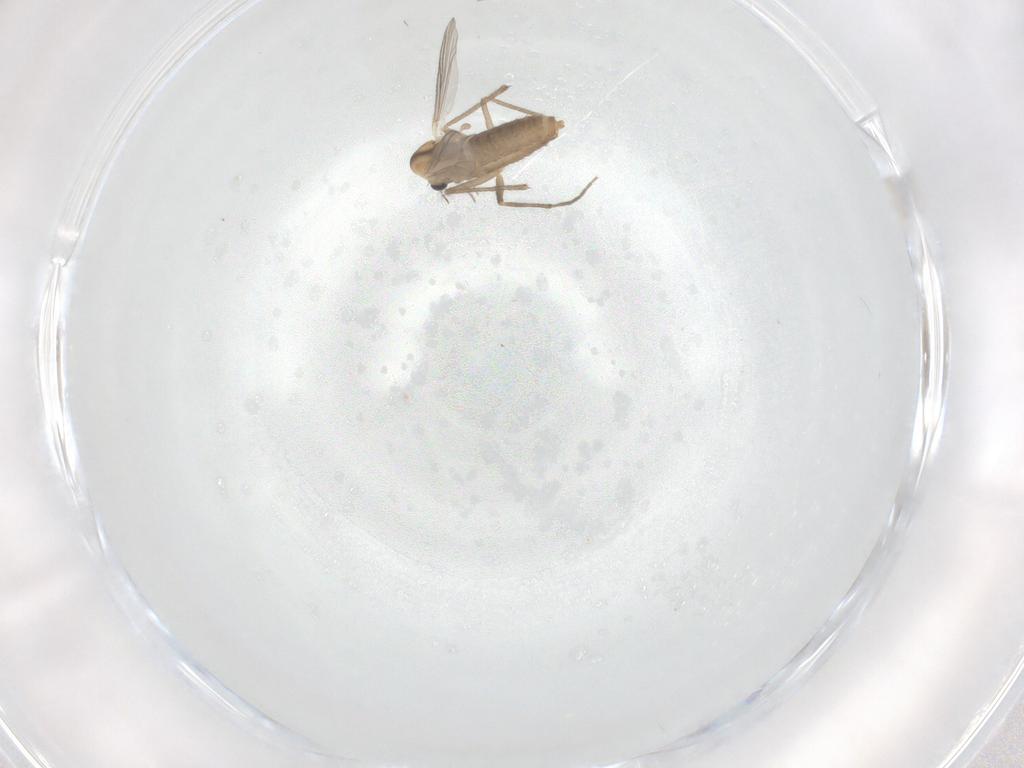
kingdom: Animalia
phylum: Arthropoda
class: Insecta
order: Diptera
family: Chironomidae
